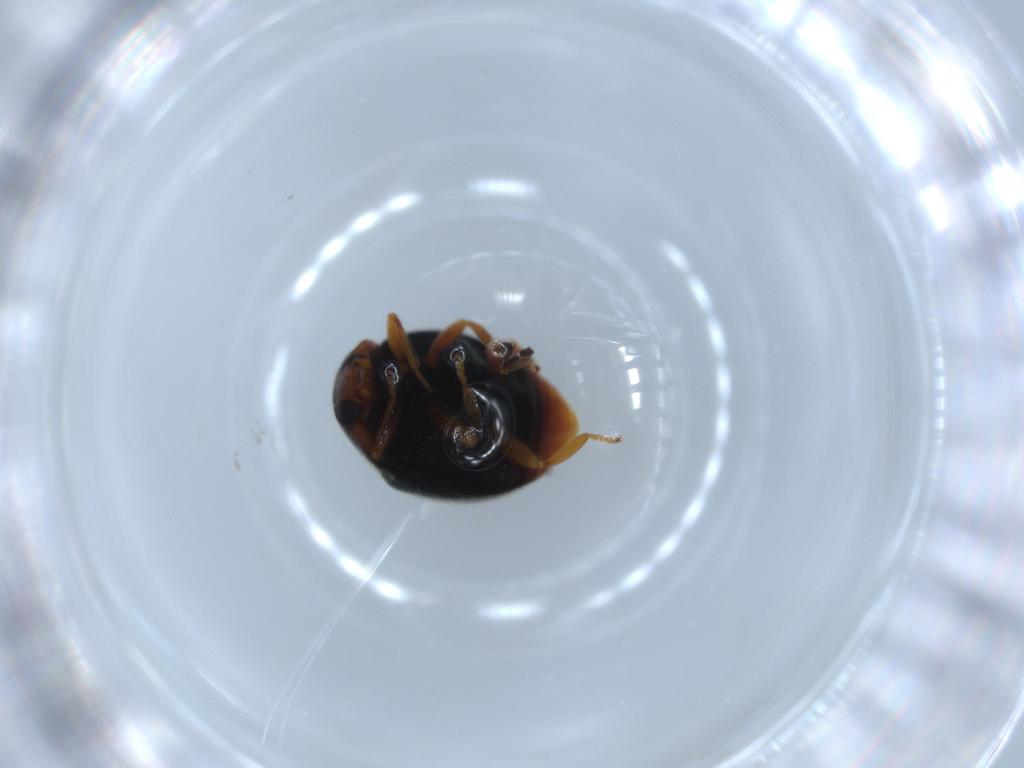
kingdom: Animalia
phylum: Arthropoda
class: Insecta
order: Coleoptera
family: Coccinellidae
